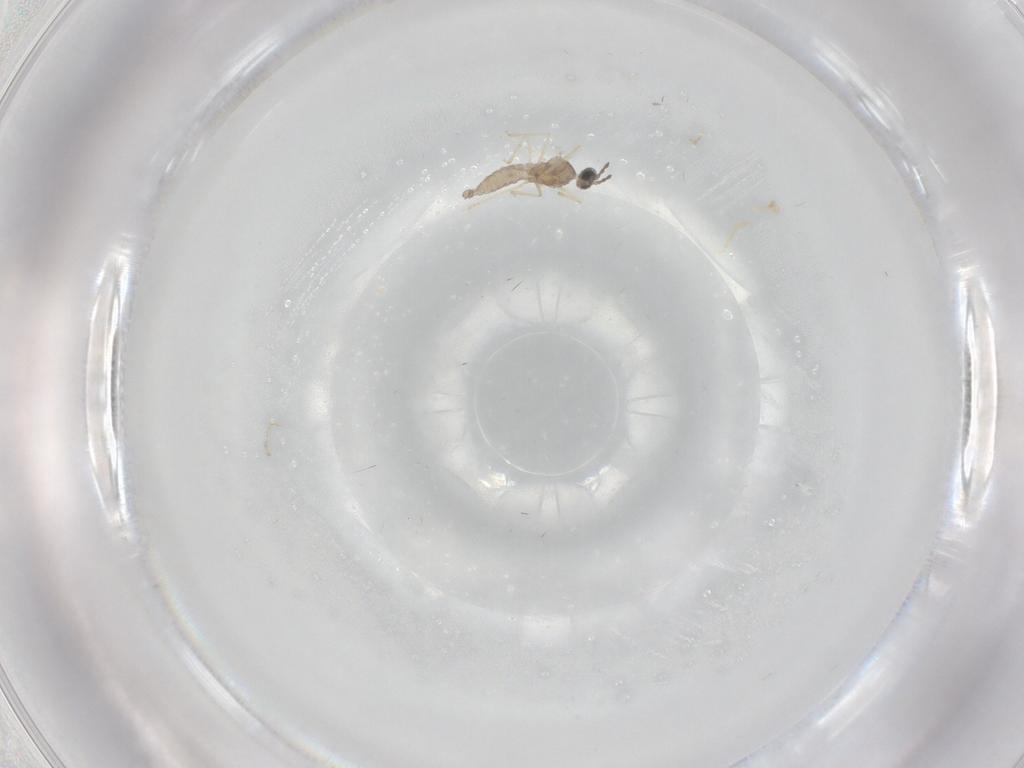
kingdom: Animalia
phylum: Arthropoda
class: Insecta
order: Diptera
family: Cecidomyiidae
